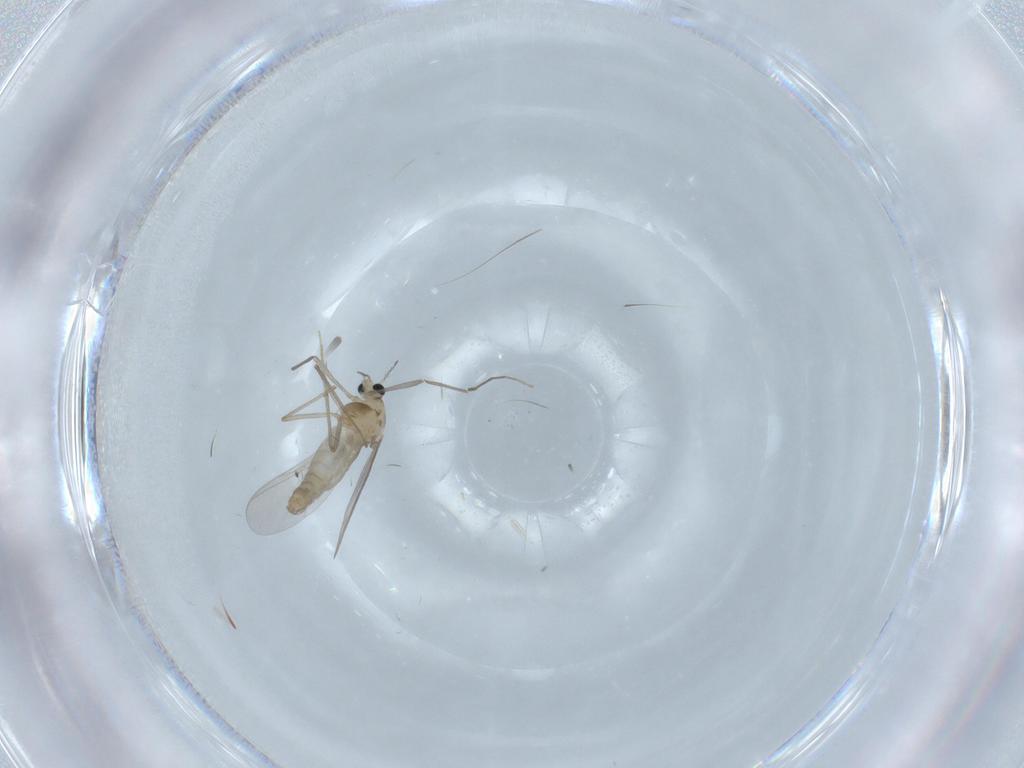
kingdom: Animalia
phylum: Arthropoda
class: Insecta
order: Diptera
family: Chironomidae
